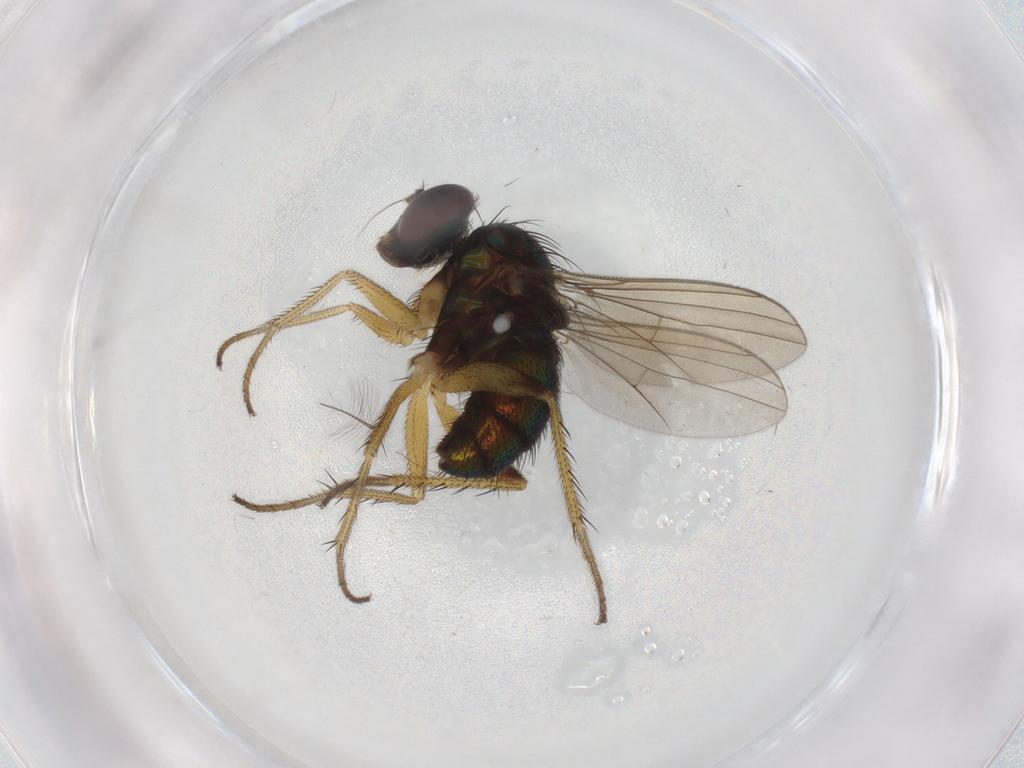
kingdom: Animalia
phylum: Arthropoda
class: Insecta
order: Diptera
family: Dolichopodidae
